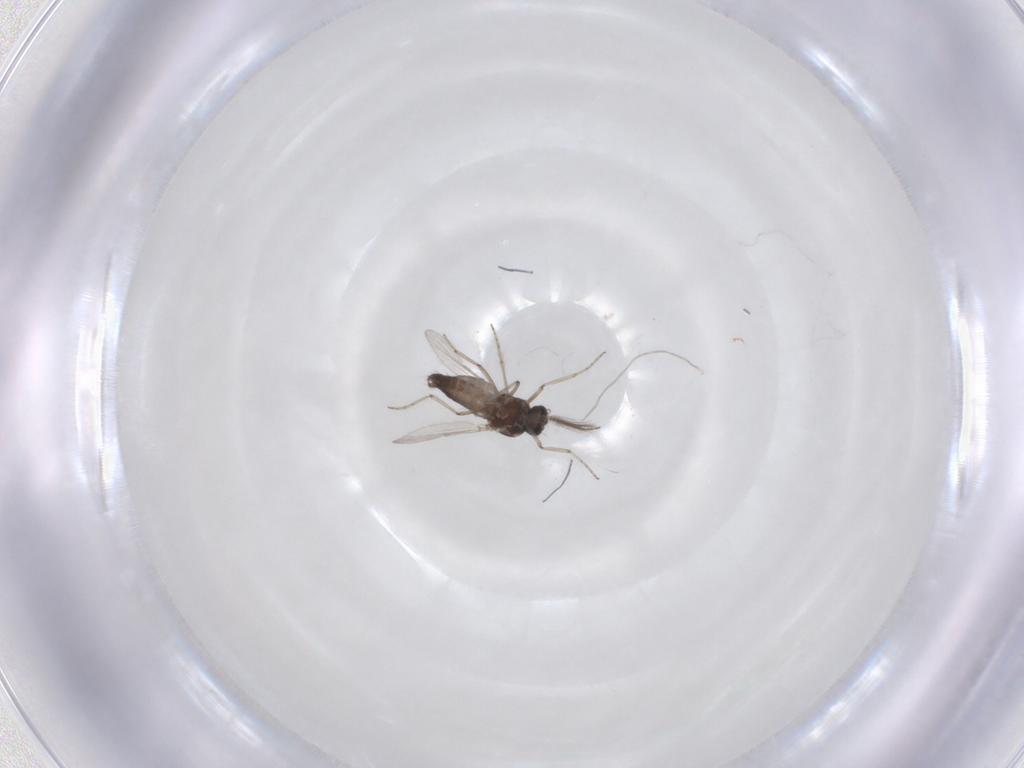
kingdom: Animalia
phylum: Arthropoda
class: Insecta
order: Diptera
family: Ceratopogonidae
